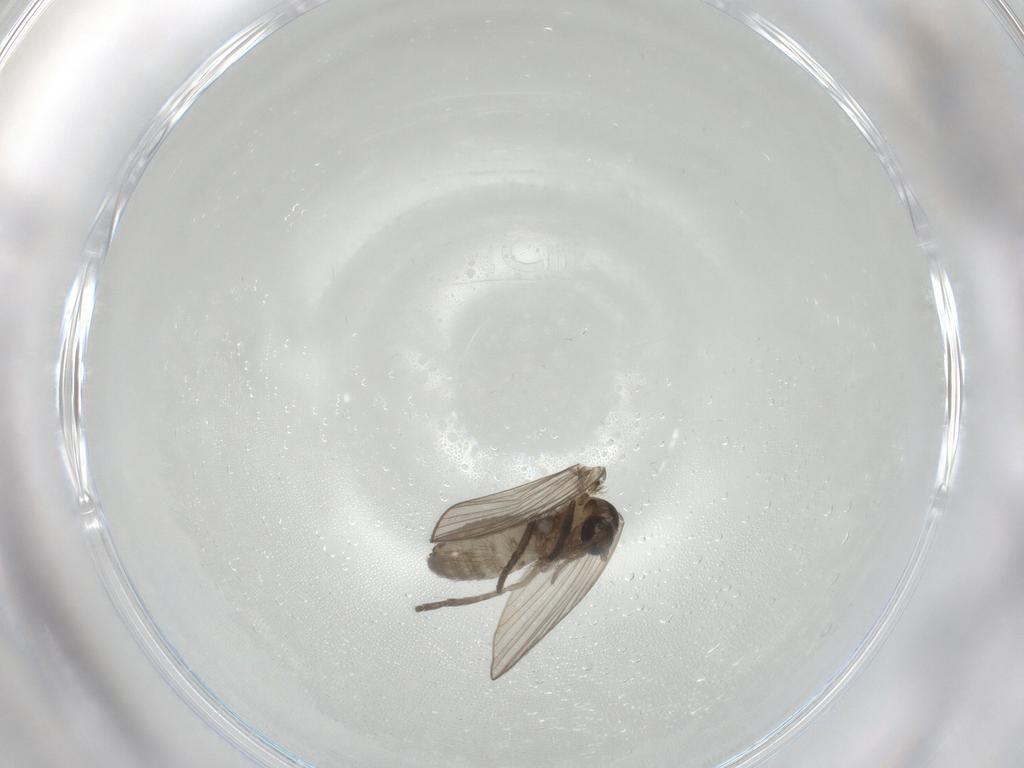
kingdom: Animalia
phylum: Arthropoda
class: Insecta
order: Diptera
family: Psychodidae
